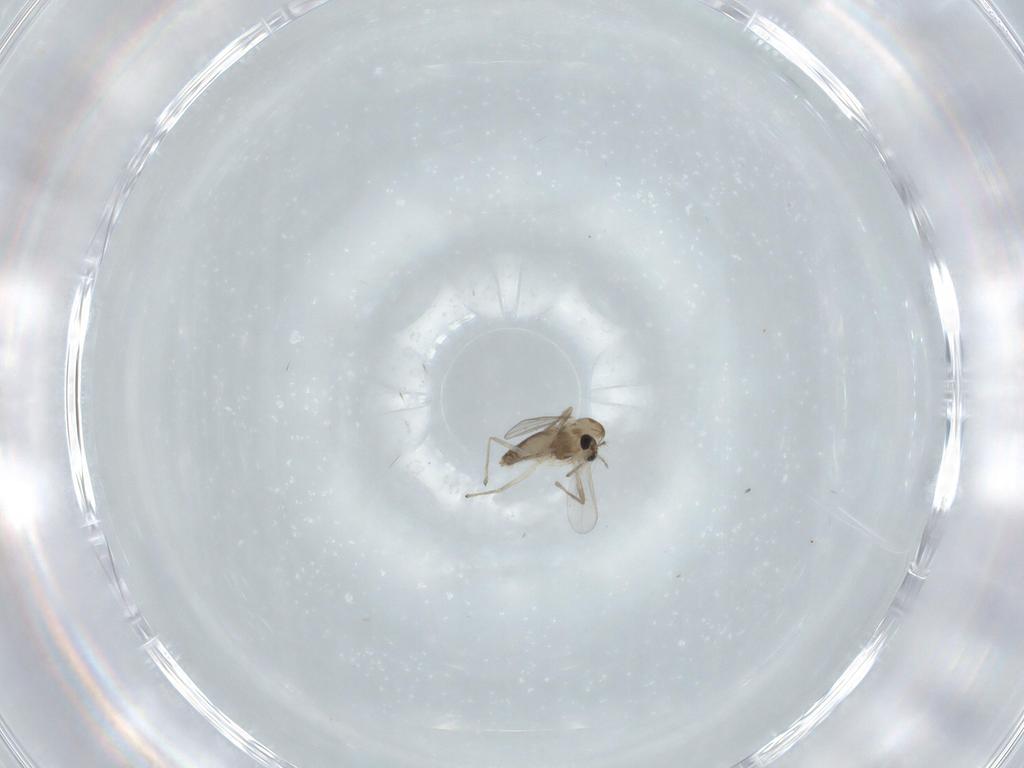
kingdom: Animalia
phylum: Arthropoda
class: Insecta
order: Diptera
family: Chironomidae
